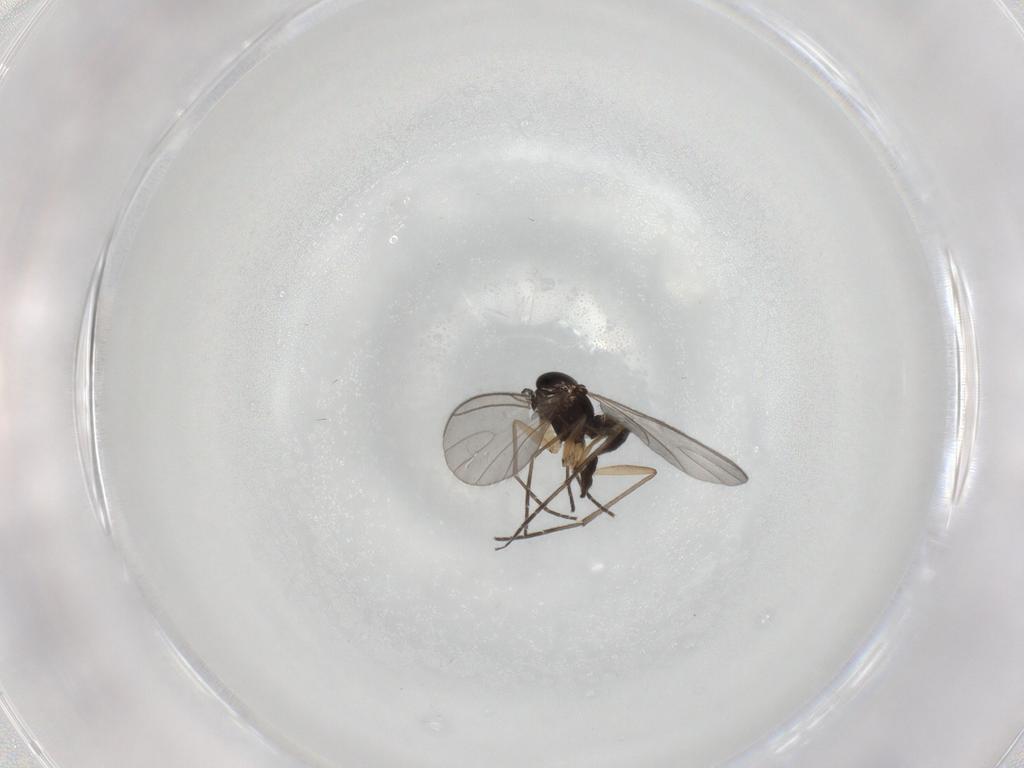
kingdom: Animalia
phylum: Arthropoda
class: Insecta
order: Diptera
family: Sciaridae
